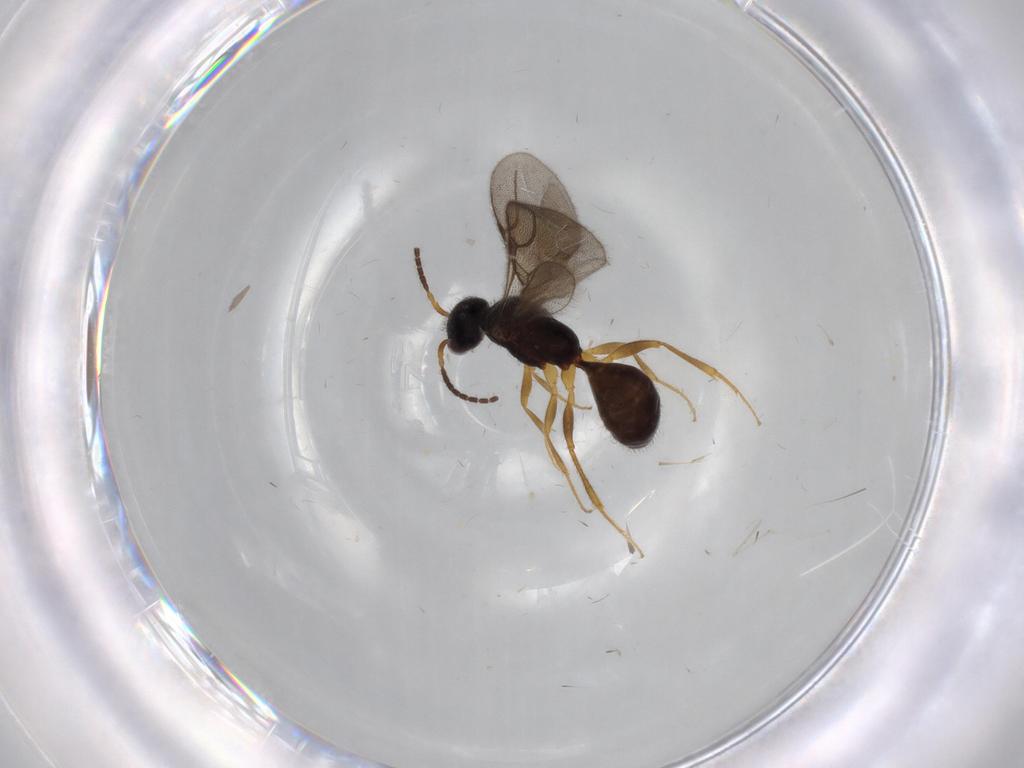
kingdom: Animalia
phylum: Arthropoda
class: Insecta
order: Hymenoptera
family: Bethylidae
